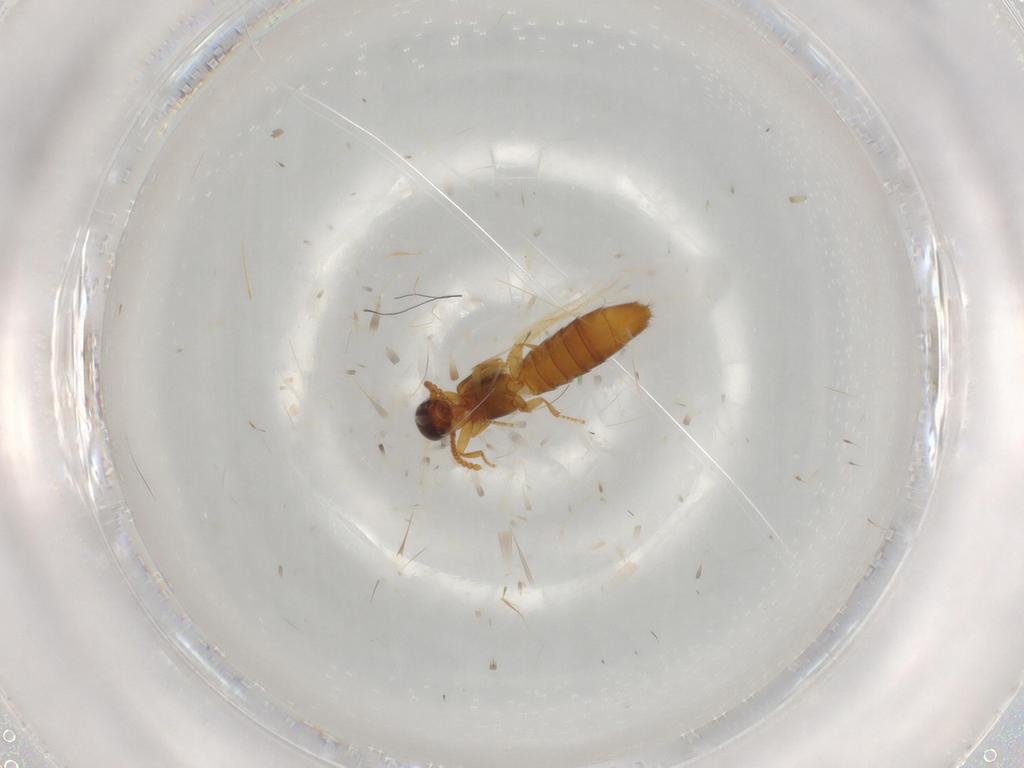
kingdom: Animalia
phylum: Arthropoda
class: Insecta
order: Coleoptera
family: Staphylinidae
